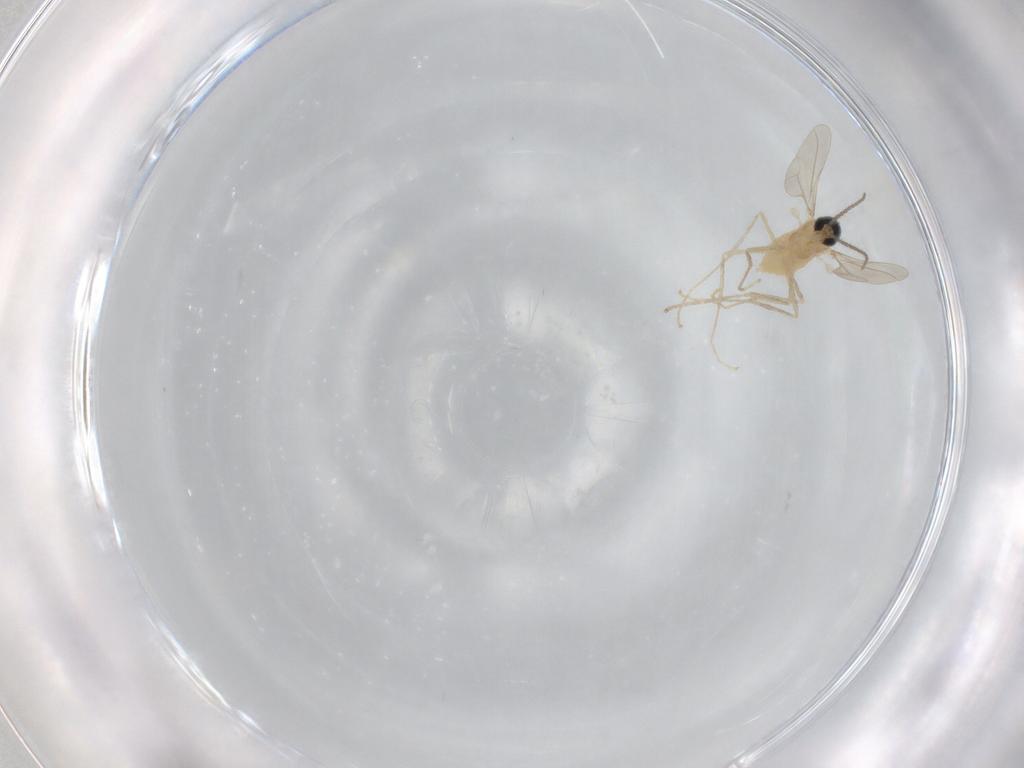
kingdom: Animalia
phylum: Arthropoda
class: Insecta
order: Diptera
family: Cecidomyiidae
